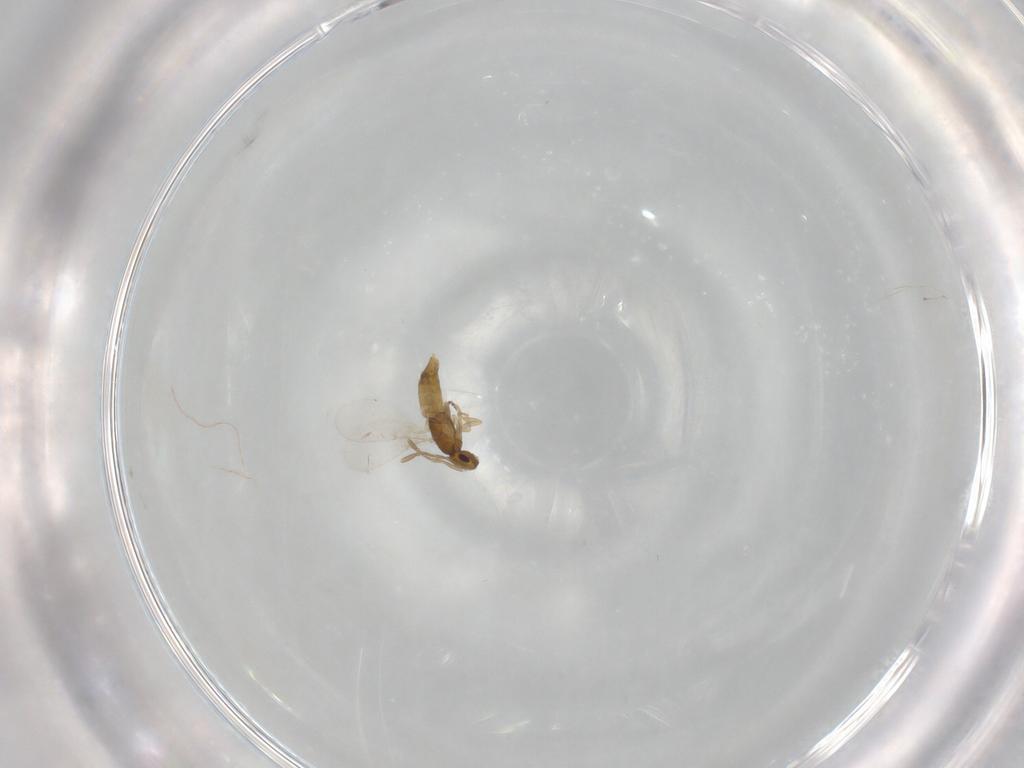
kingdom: Animalia
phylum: Arthropoda
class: Insecta
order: Hymenoptera
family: Encyrtidae
